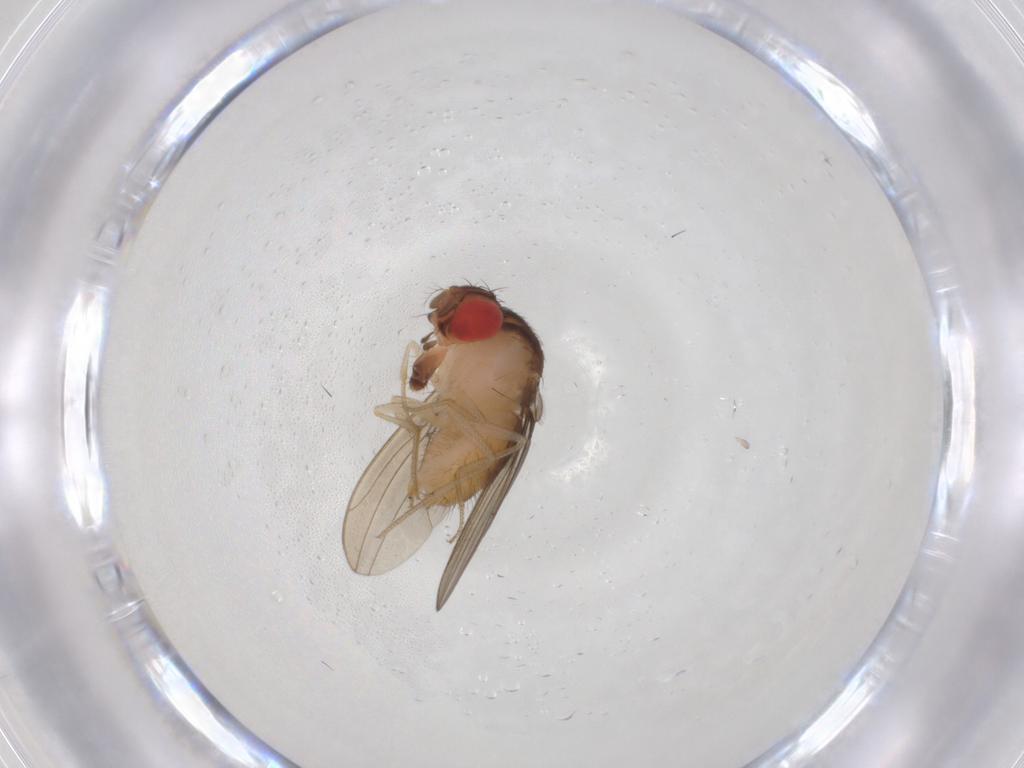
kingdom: Animalia
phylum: Arthropoda
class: Insecta
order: Diptera
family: Drosophilidae
